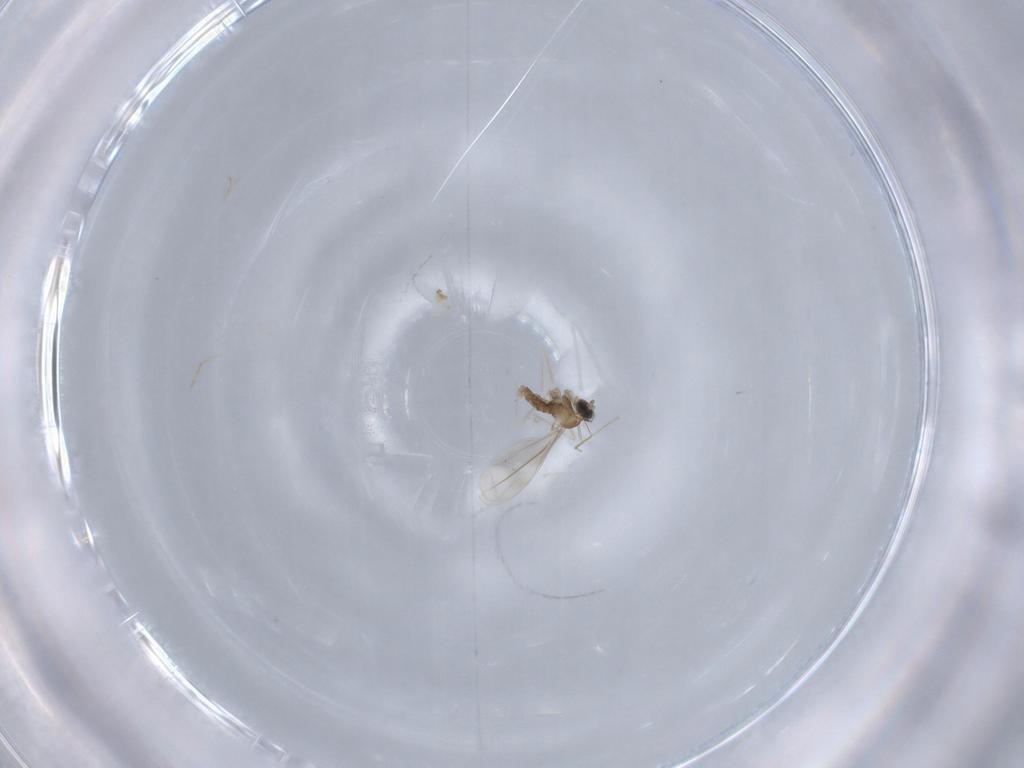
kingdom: Animalia
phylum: Arthropoda
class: Insecta
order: Diptera
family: Cecidomyiidae
